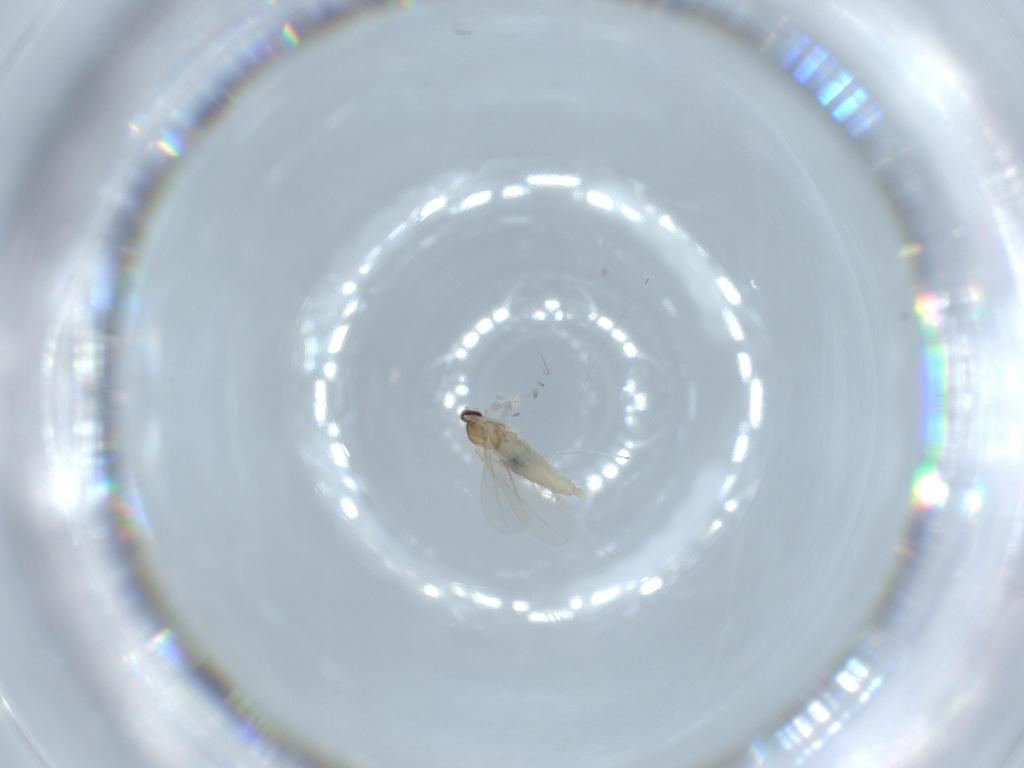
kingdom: Animalia
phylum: Arthropoda
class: Insecta
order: Diptera
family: Cecidomyiidae
